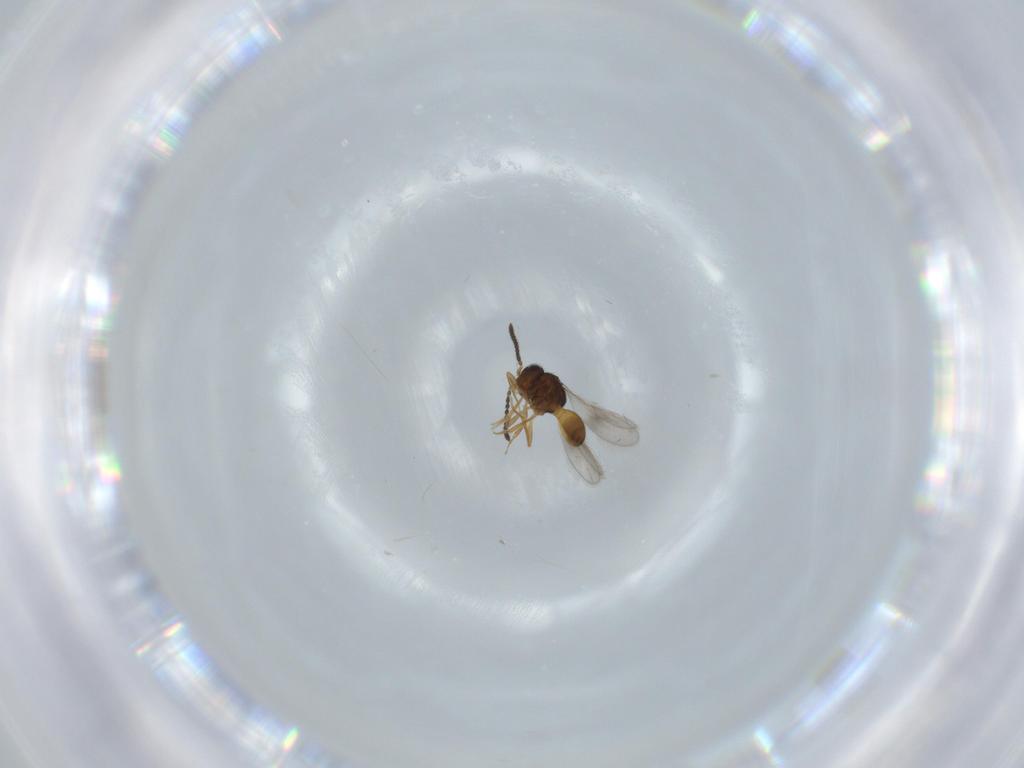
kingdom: Animalia
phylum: Arthropoda
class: Insecta
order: Hymenoptera
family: Scelionidae
